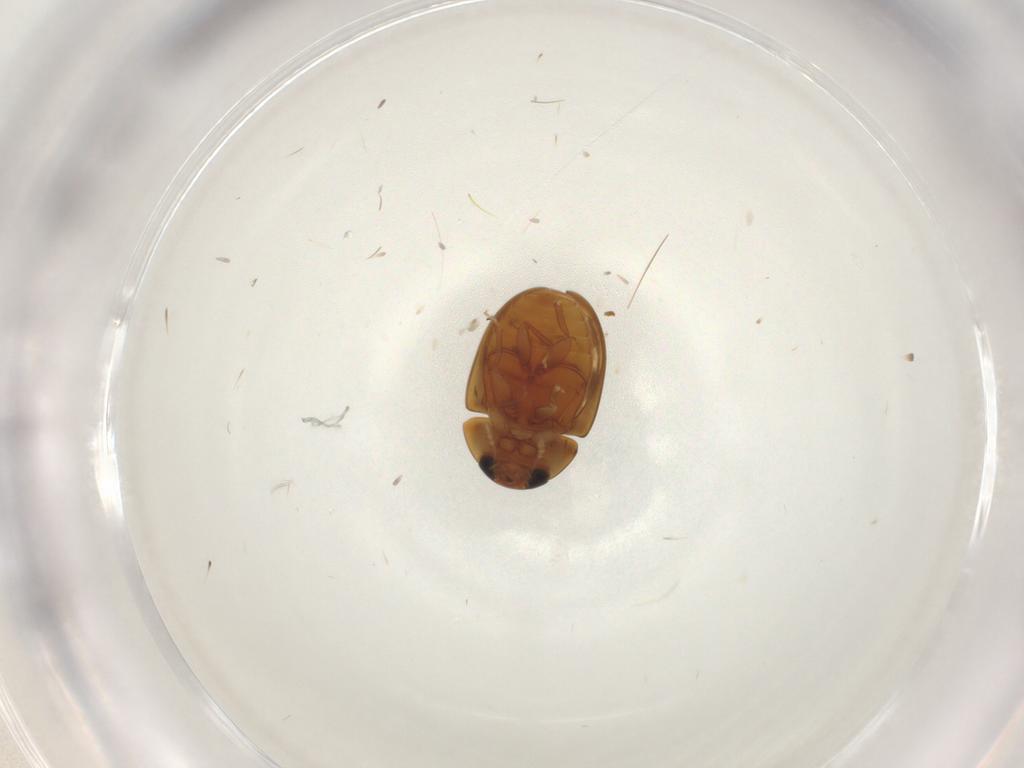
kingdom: Animalia
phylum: Arthropoda
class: Insecta
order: Coleoptera
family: Phalacridae
